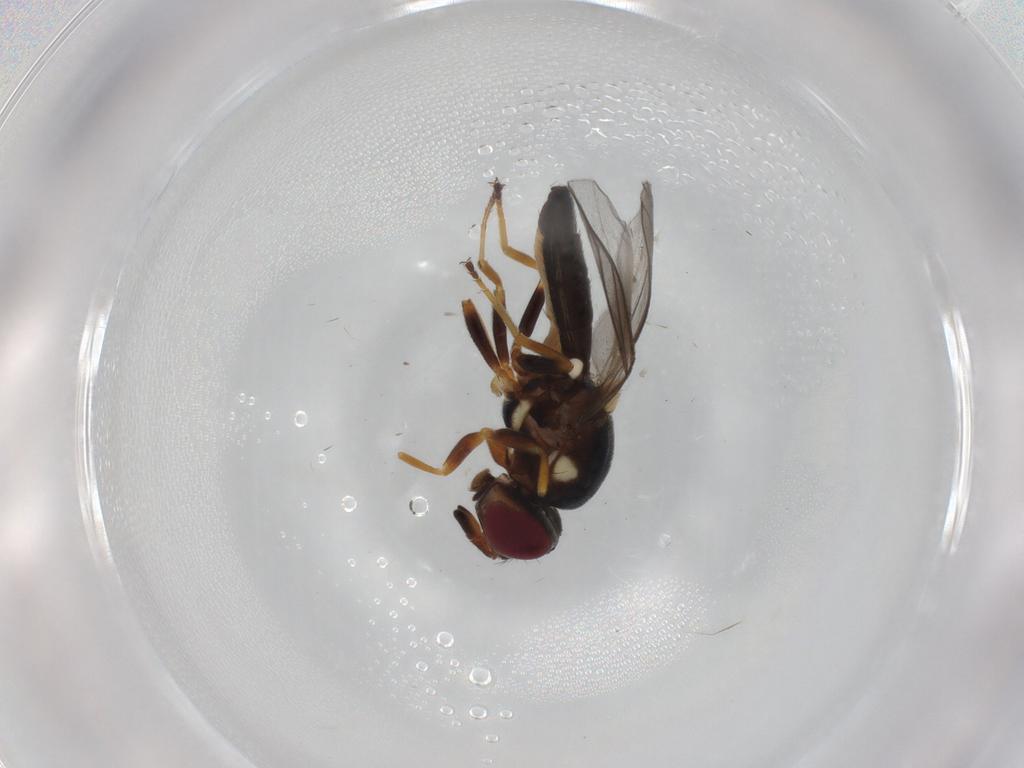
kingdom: Animalia
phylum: Arthropoda
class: Insecta
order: Diptera
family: Chloropidae
